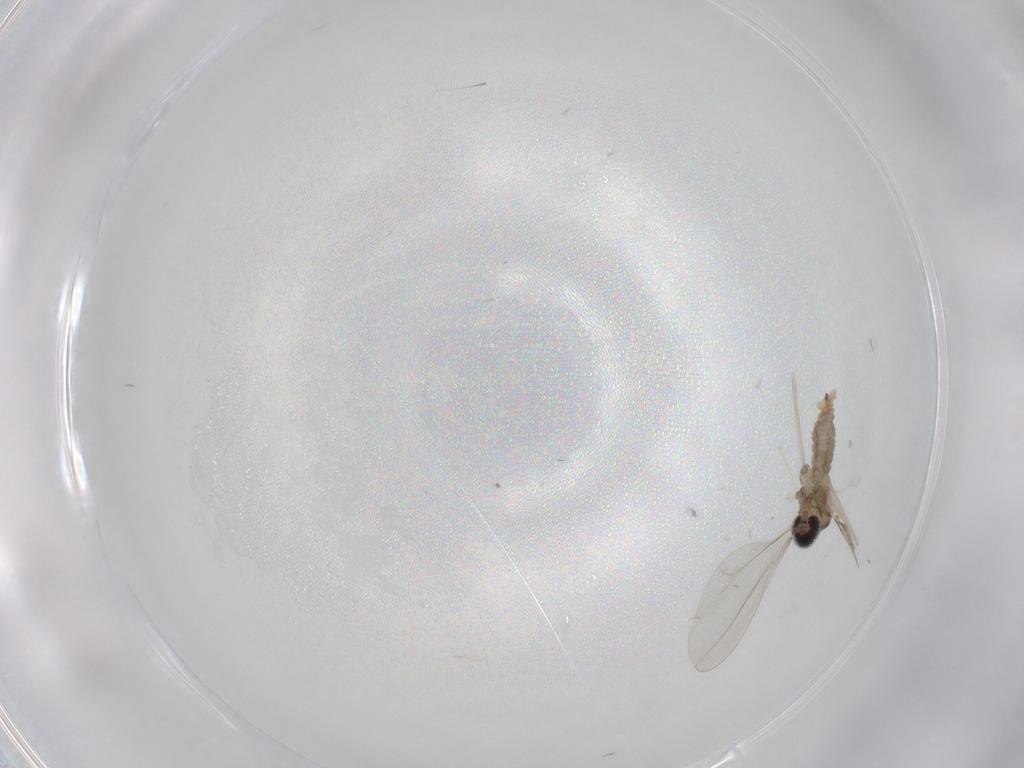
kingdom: Animalia
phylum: Arthropoda
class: Insecta
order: Diptera
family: Cecidomyiidae
